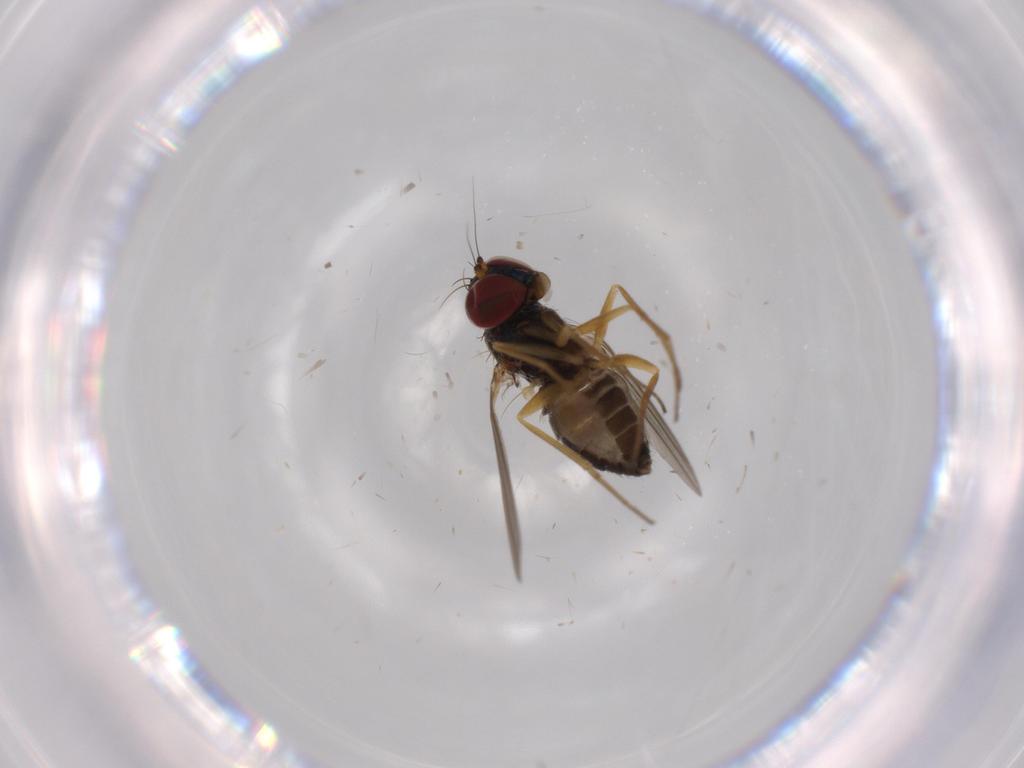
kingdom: Animalia
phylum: Arthropoda
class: Insecta
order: Diptera
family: Dolichopodidae
